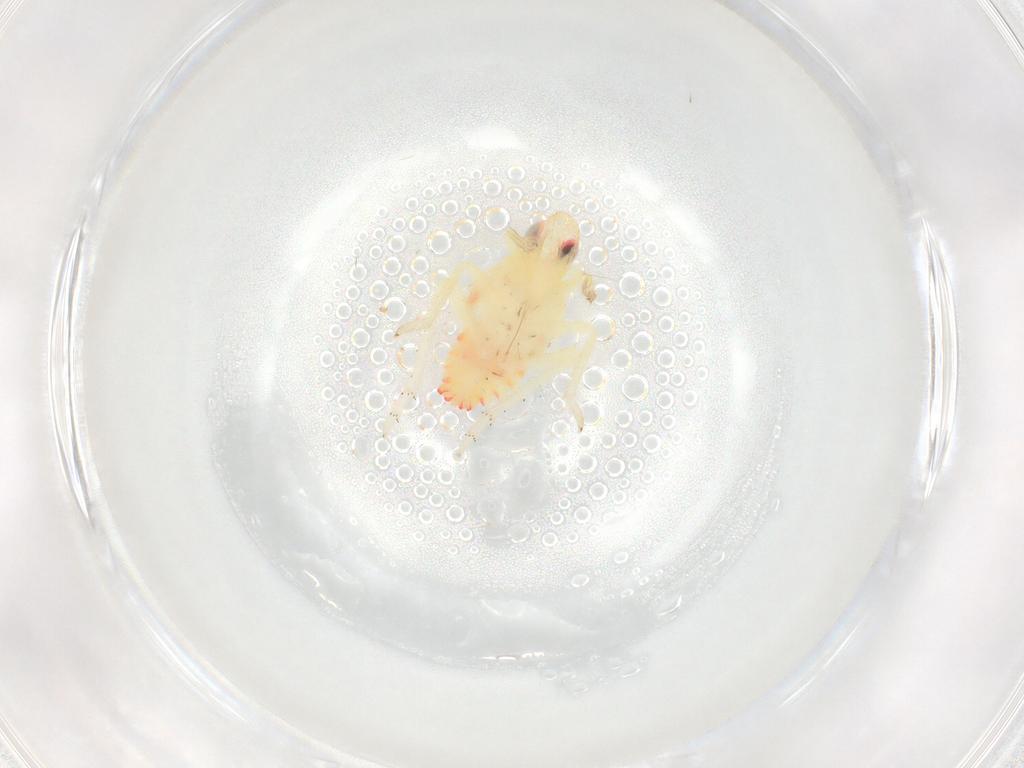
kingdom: Animalia
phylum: Arthropoda
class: Insecta
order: Hemiptera
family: Tropiduchidae
